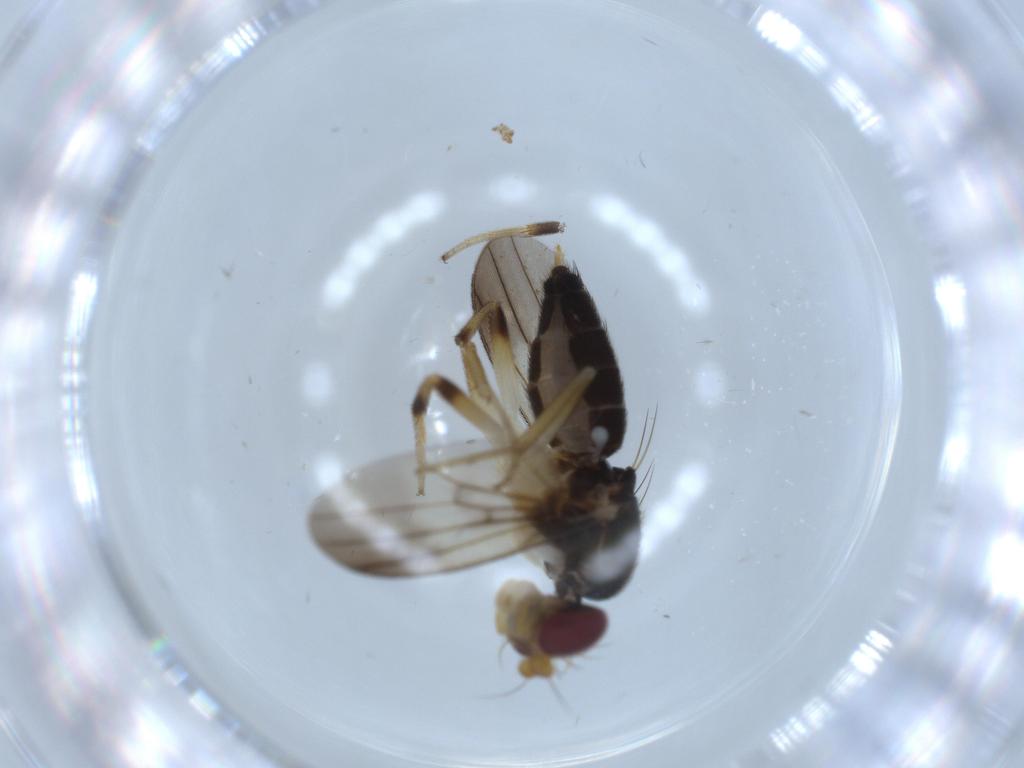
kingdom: Animalia
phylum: Arthropoda
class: Insecta
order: Diptera
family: Clusiidae
